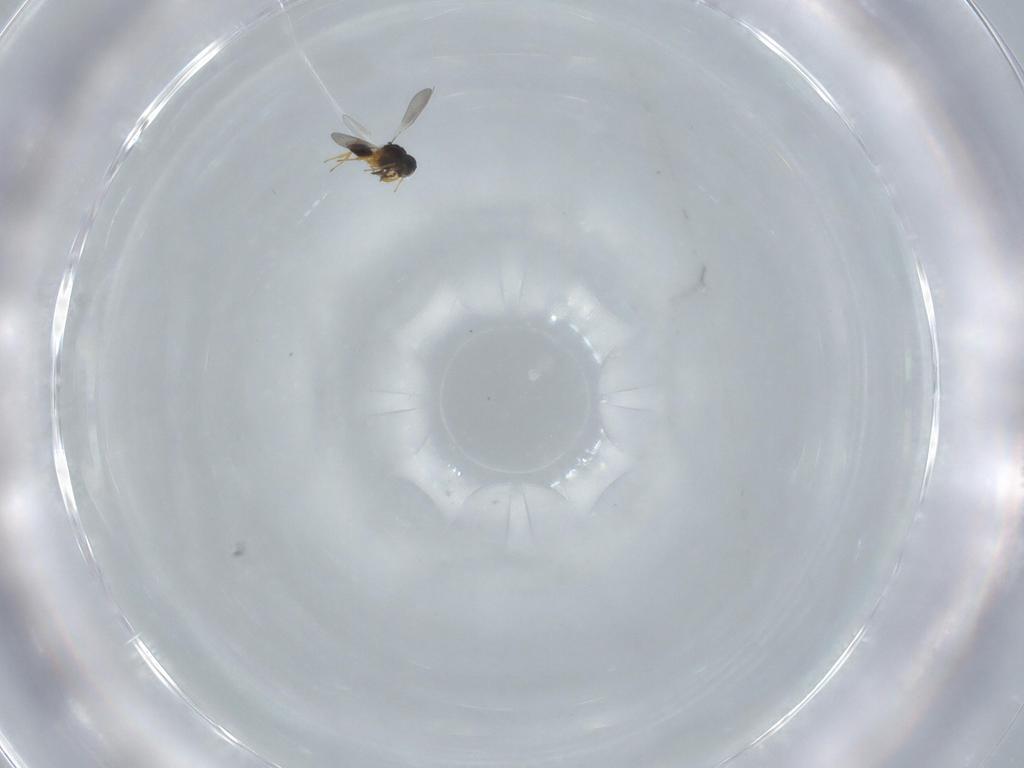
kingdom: Animalia
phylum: Arthropoda
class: Insecta
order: Hymenoptera
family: Platygastridae
